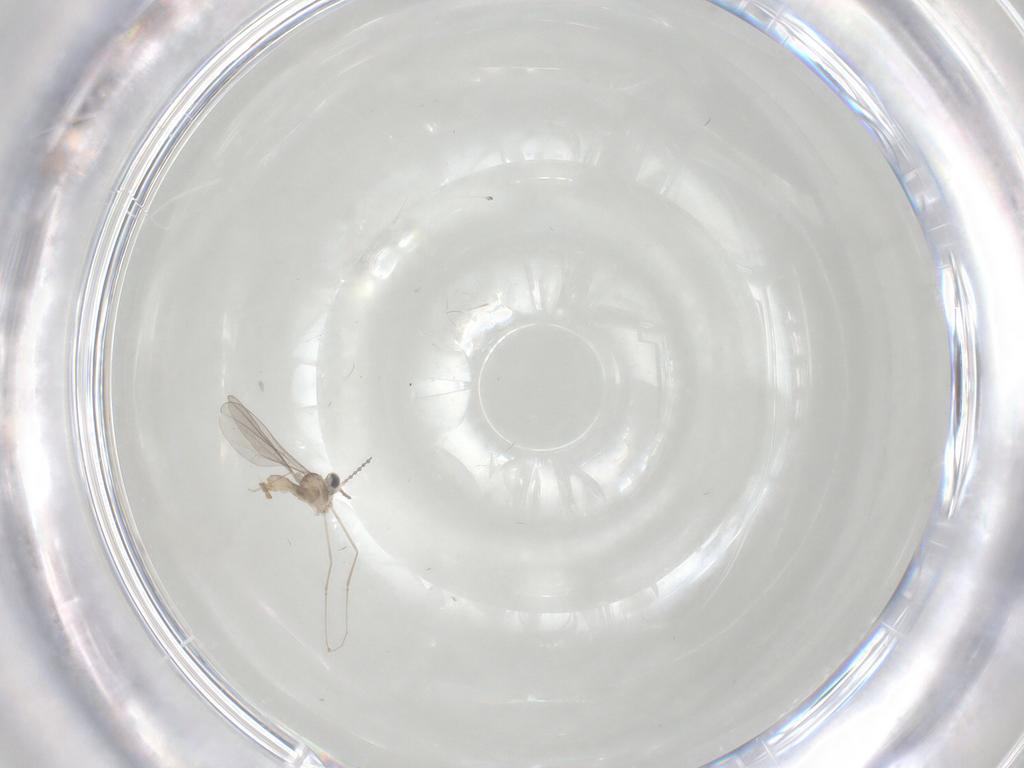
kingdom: Animalia
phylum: Arthropoda
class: Insecta
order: Diptera
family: Cecidomyiidae
